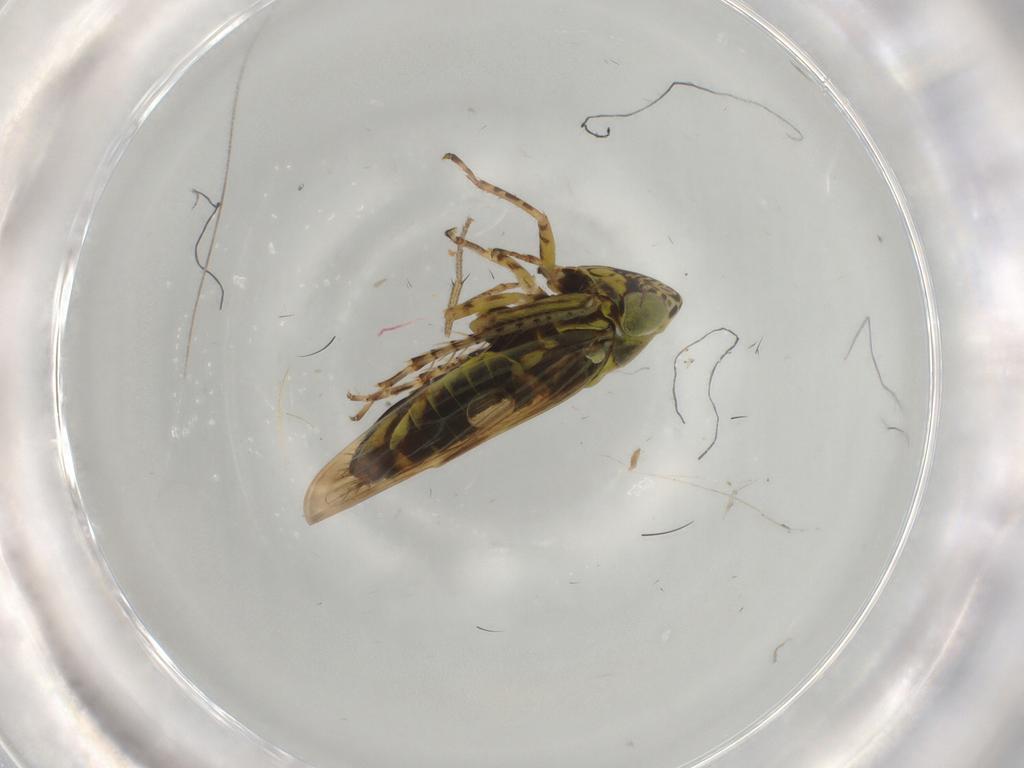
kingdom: Animalia
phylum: Arthropoda
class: Insecta
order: Hemiptera
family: Cicadellidae
